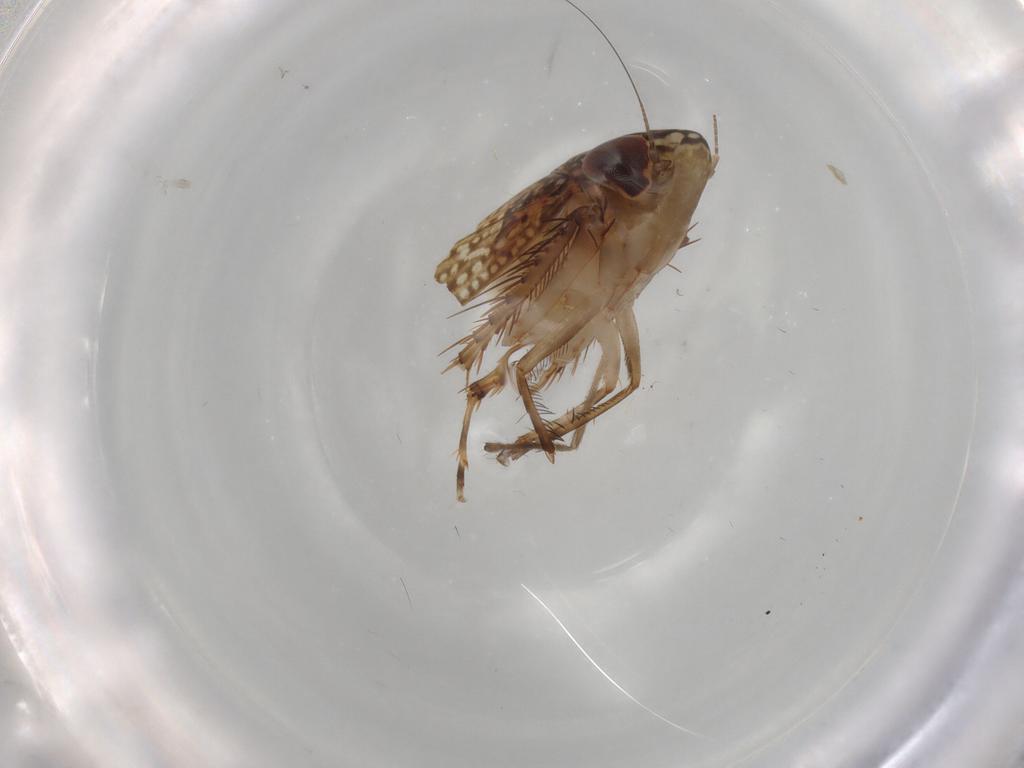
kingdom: Animalia
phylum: Arthropoda
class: Insecta
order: Hemiptera
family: Cicadellidae
